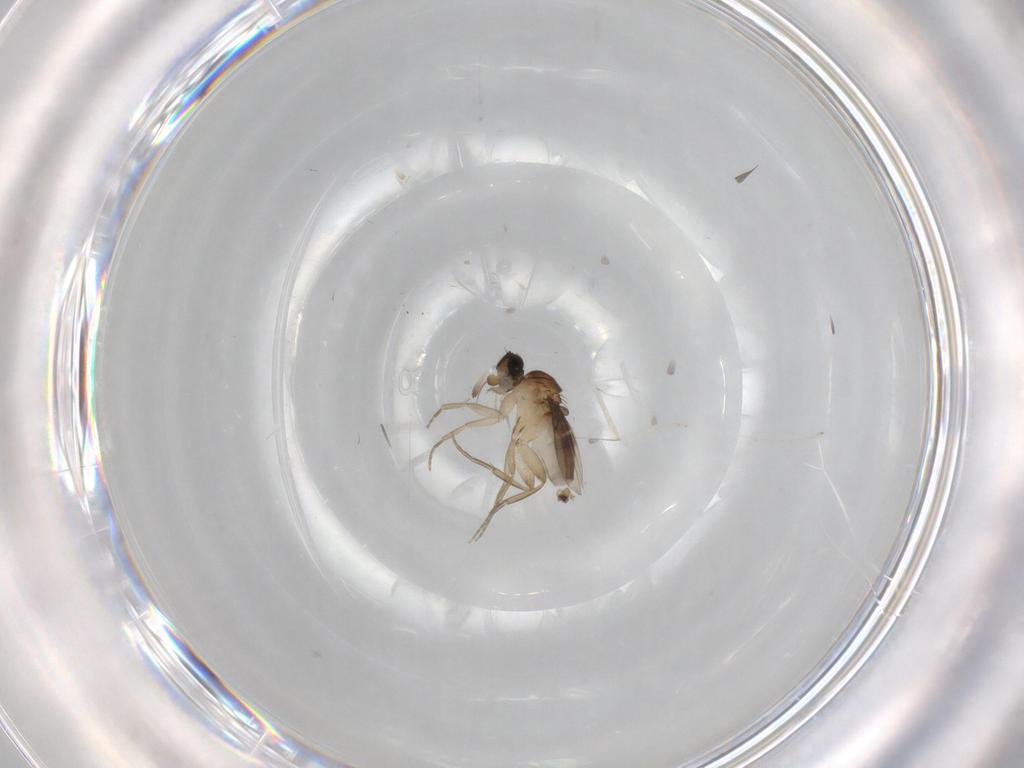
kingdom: Animalia
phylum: Arthropoda
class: Insecta
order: Diptera
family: Phoridae
